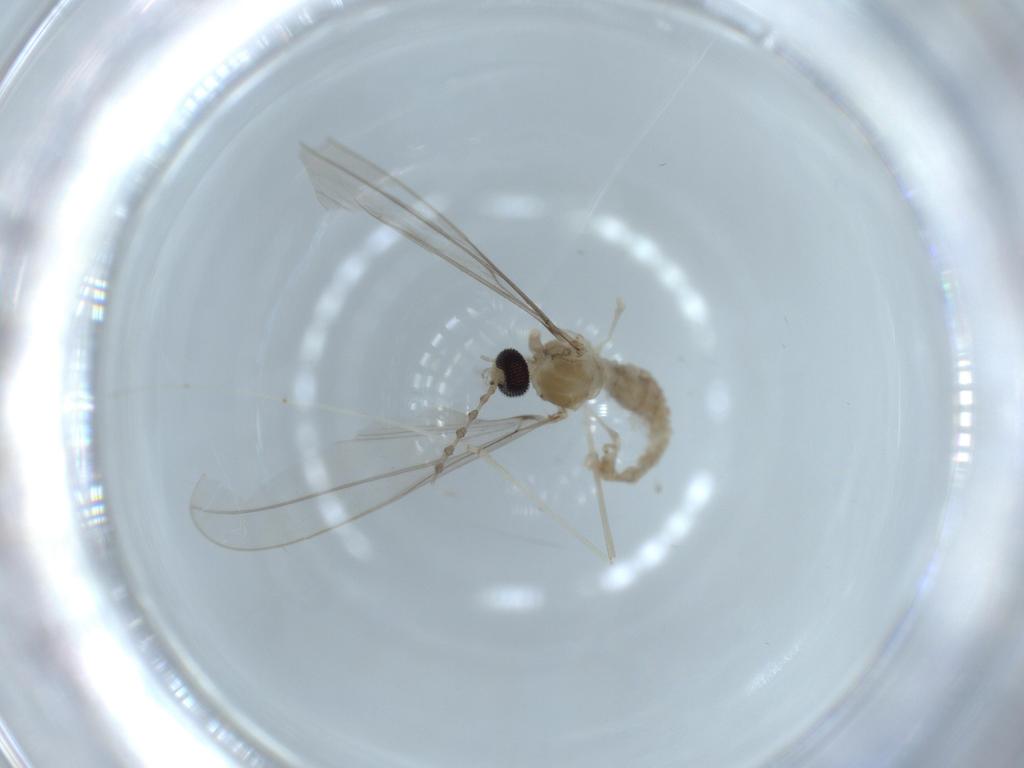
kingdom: Animalia
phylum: Arthropoda
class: Insecta
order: Diptera
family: Cecidomyiidae
